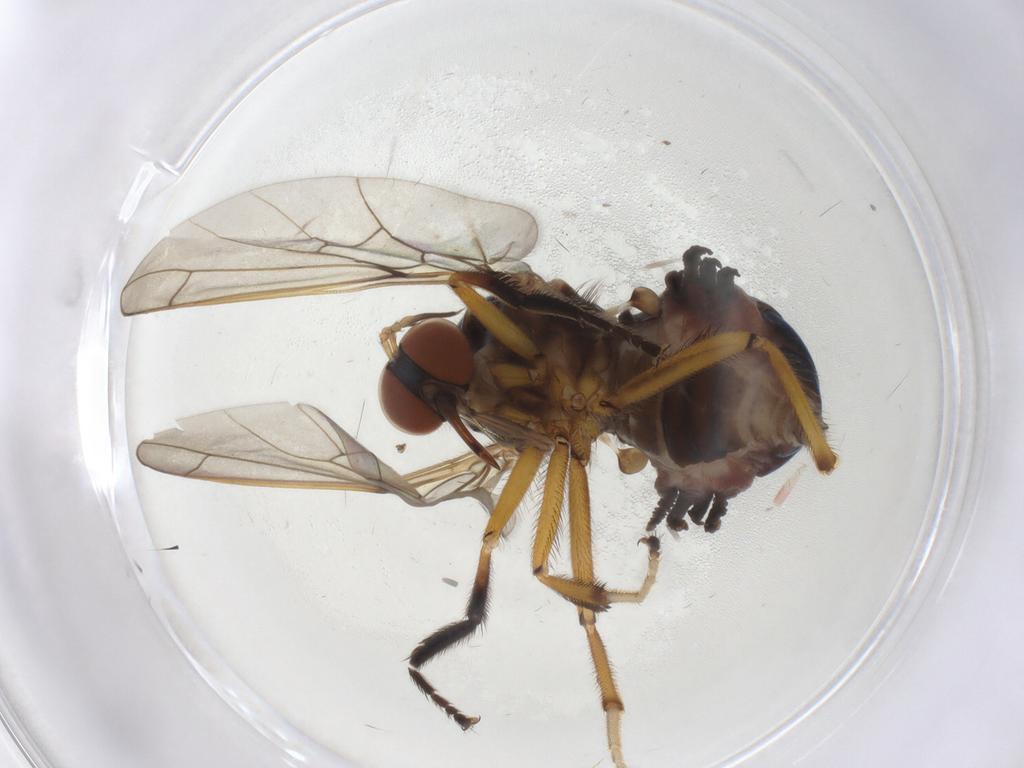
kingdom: Animalia
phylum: Arthropoda
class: Insecta
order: Diptera
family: Empididae
